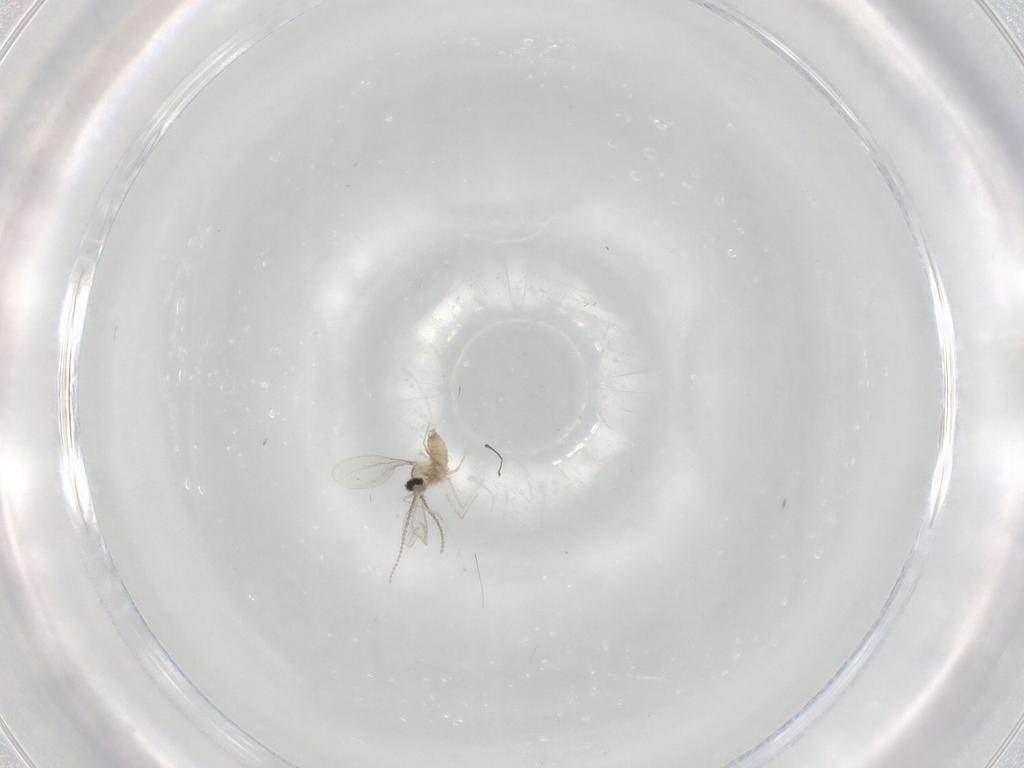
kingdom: Animalia
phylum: Arthropoda
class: Insecta
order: Diptera
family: Cecidomyiidae
